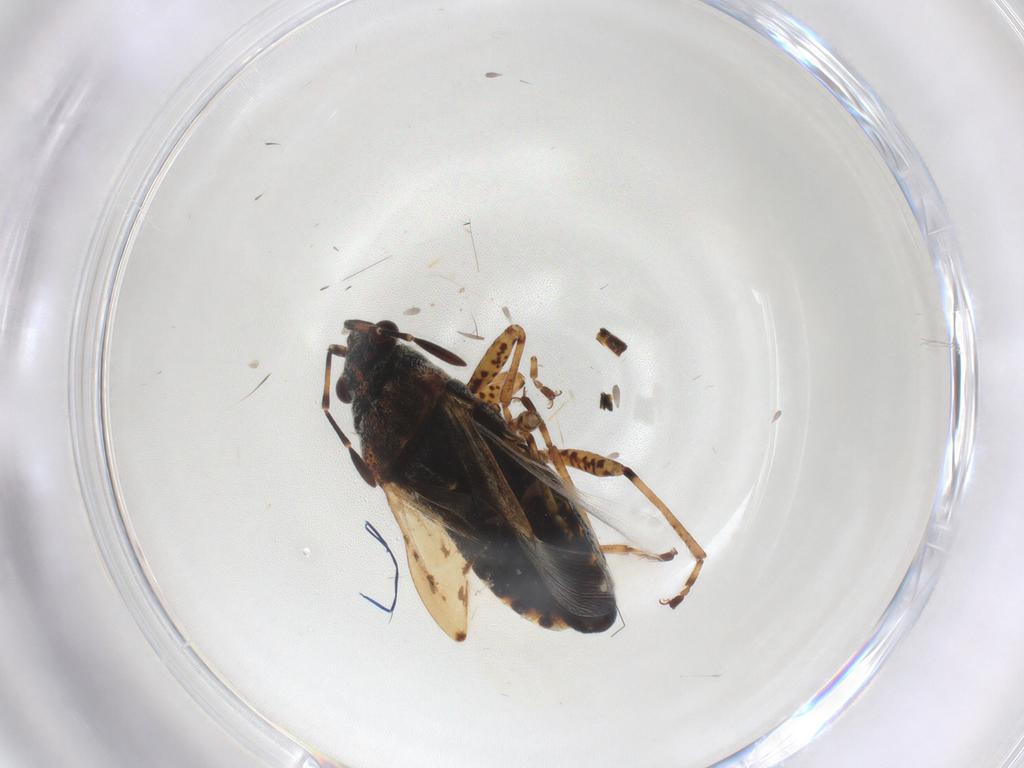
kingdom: Animalia
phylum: Arthropoda
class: Insecta
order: Hemiptera
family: Lygaeidae
